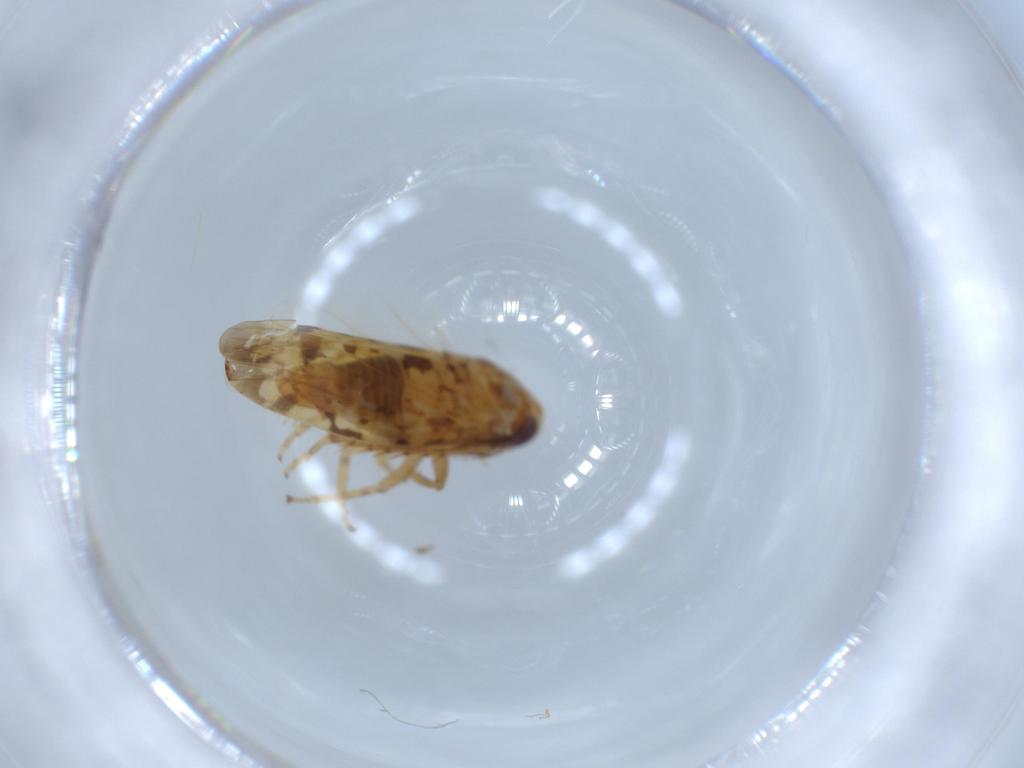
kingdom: Animalia
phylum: Arthropoda
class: Insecta
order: Hemiptera
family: Cicadellidae
